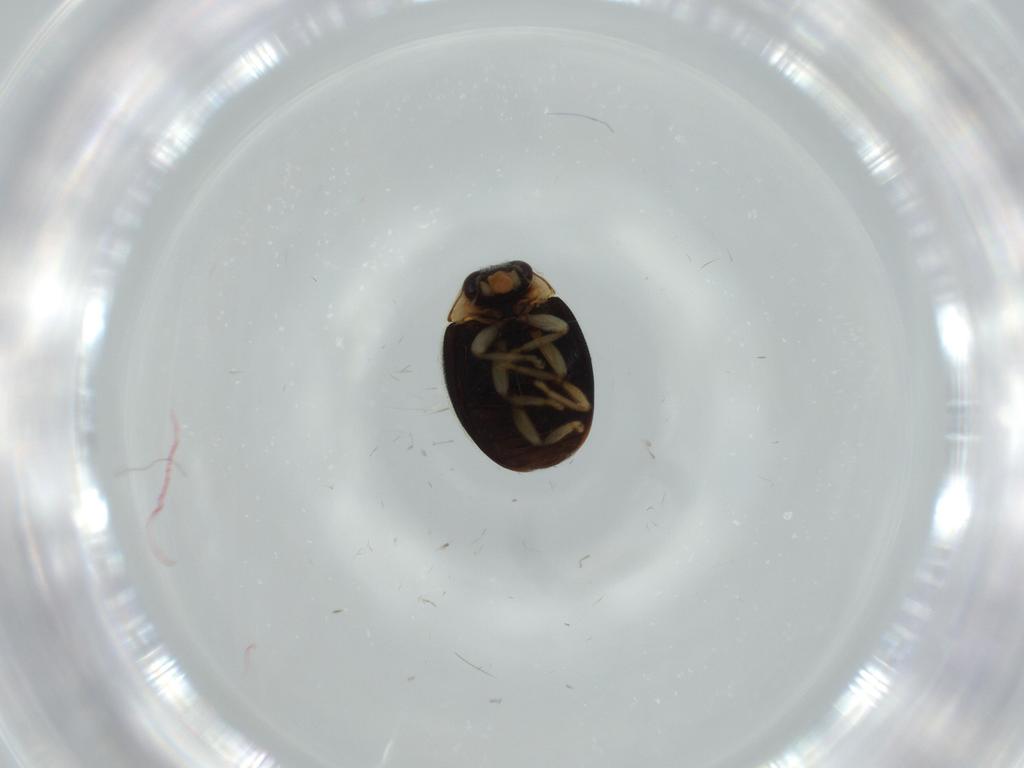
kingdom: Animalia
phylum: Arthropoda
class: Insecta
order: Coleoptera
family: Coccinellidae
